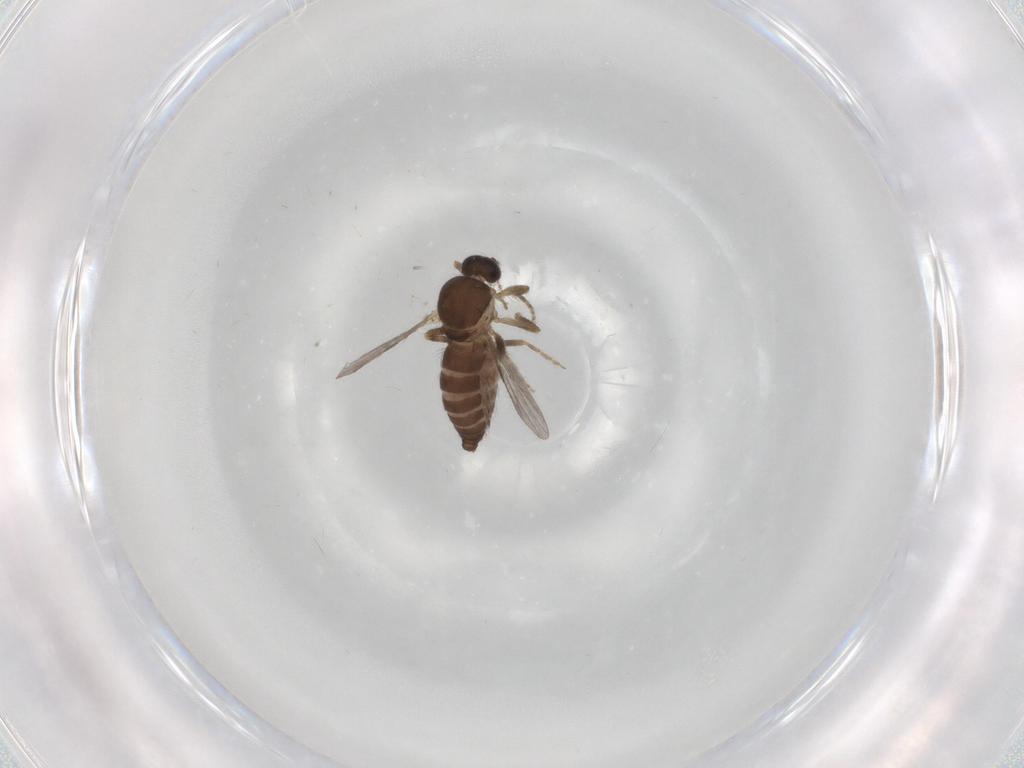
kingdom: Animalia
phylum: Arthropoda
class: Insecta
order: Diptera
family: Ceratopogonidae
